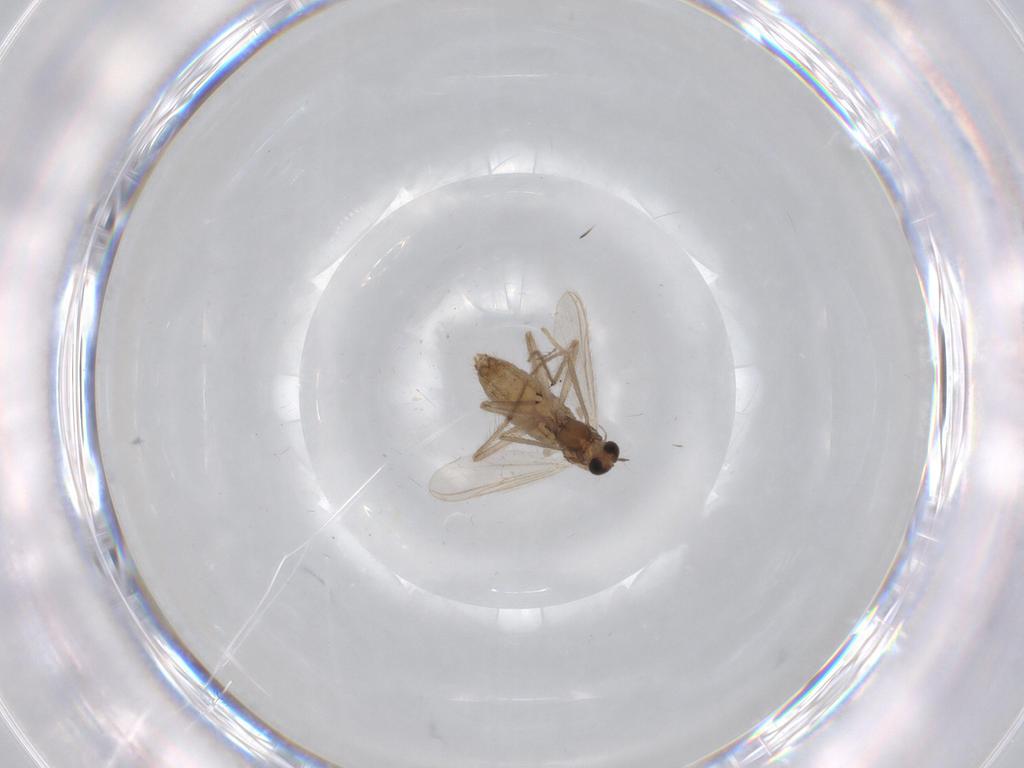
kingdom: Animalia
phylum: Arthropoda
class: Insecta
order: Diptera
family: Chironomidae
